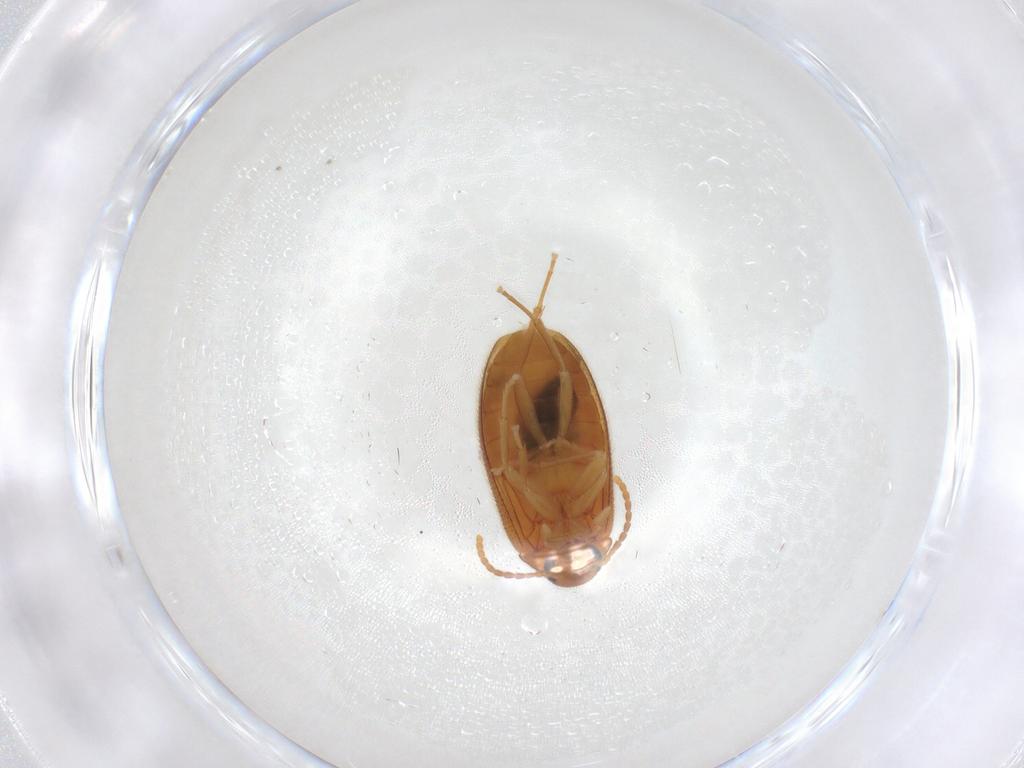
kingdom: Animalia
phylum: Arthropoda
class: Insecta
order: Coleoptera
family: Scraptiidae
